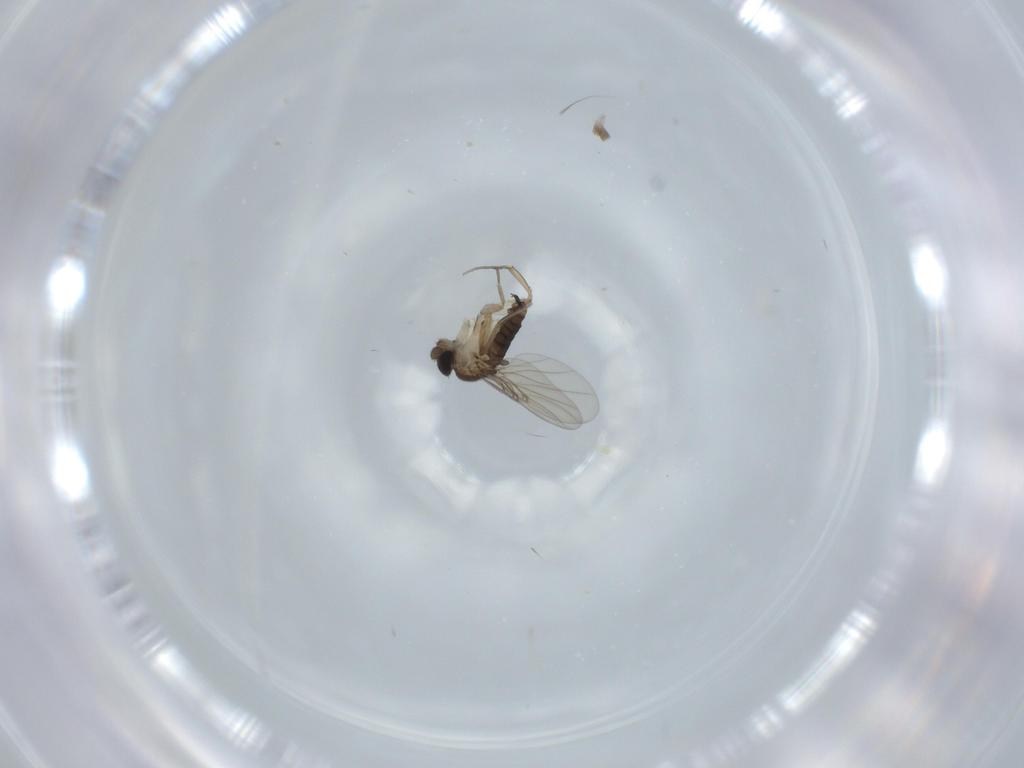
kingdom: Animalia
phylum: Arthropoda
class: Insecta
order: Diptera
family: Phoridae
